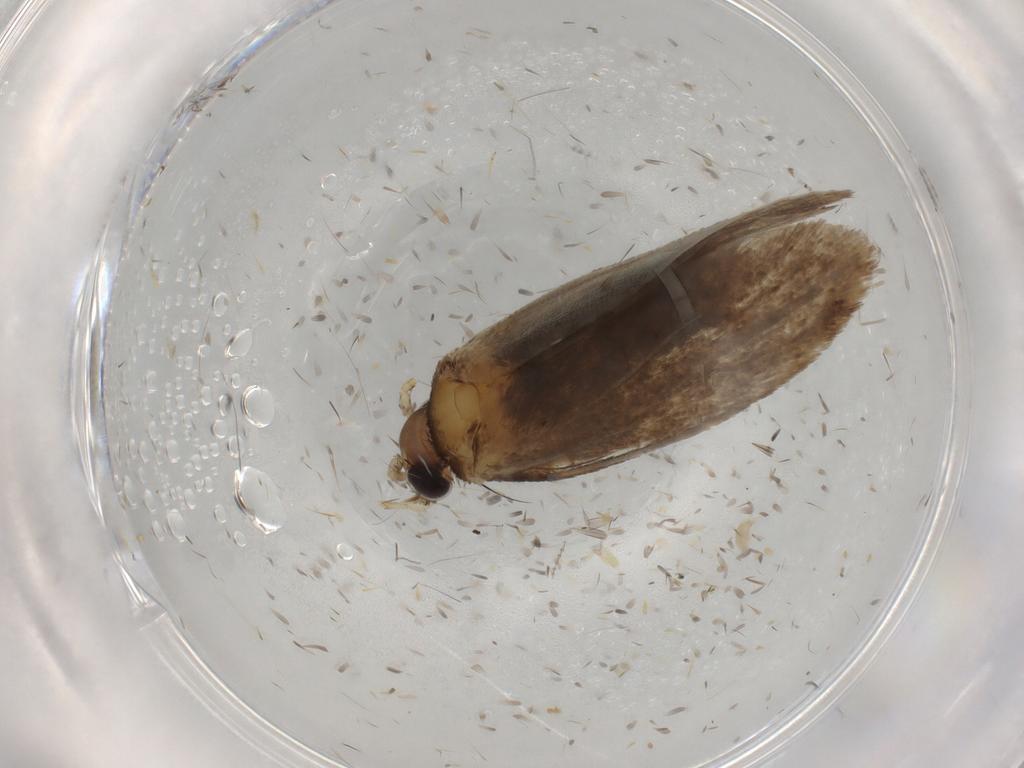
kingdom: Animalia
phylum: Arthropoda
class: Insecta
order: Lepidoptera
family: Tineidae
